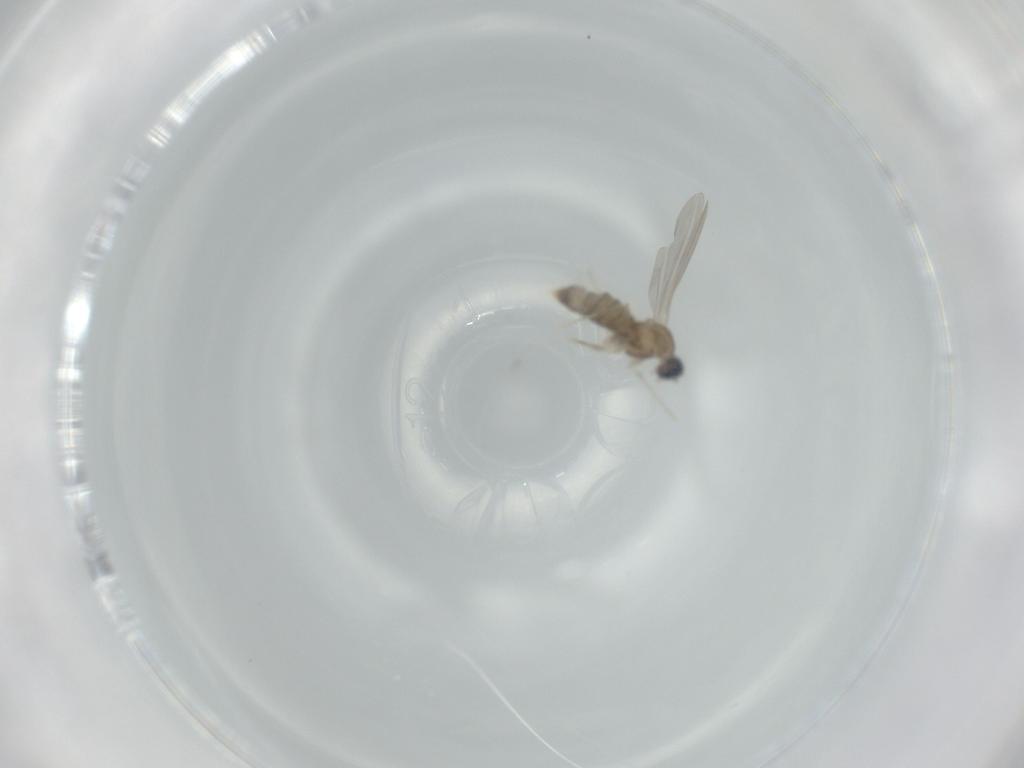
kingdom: Animalia
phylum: Arthropoda
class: Insecta
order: Diptera
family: Cecidomyiidae
